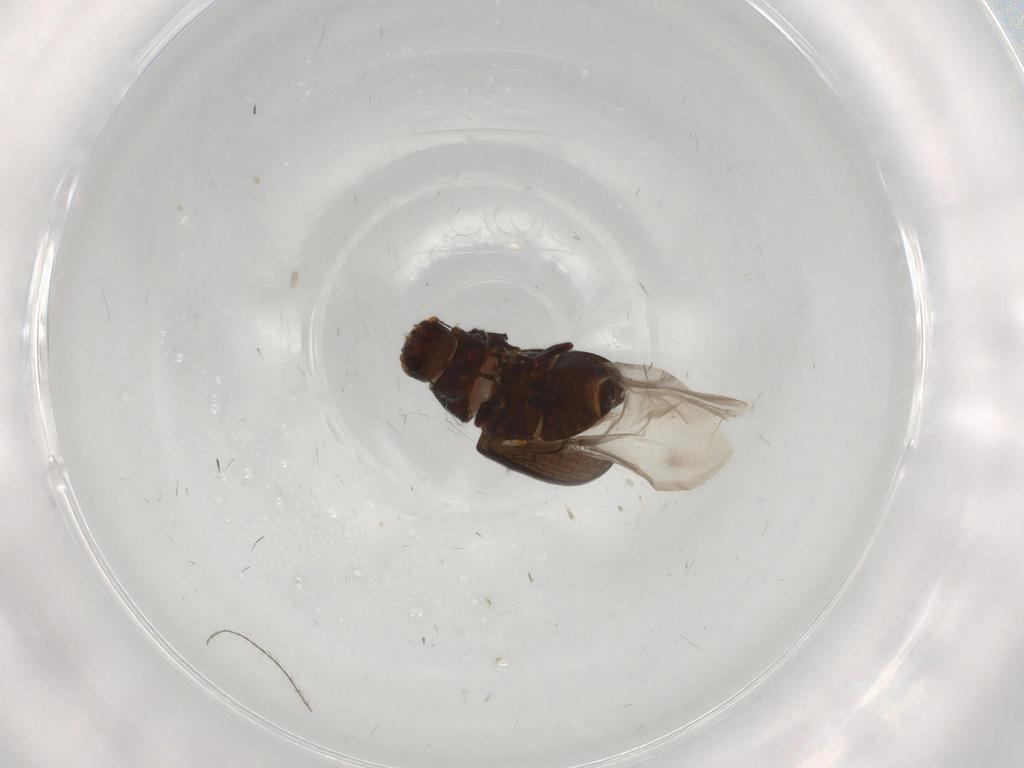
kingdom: Animalia
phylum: Arthropoda
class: Insecta
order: Coleoptera
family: Anthribidae
